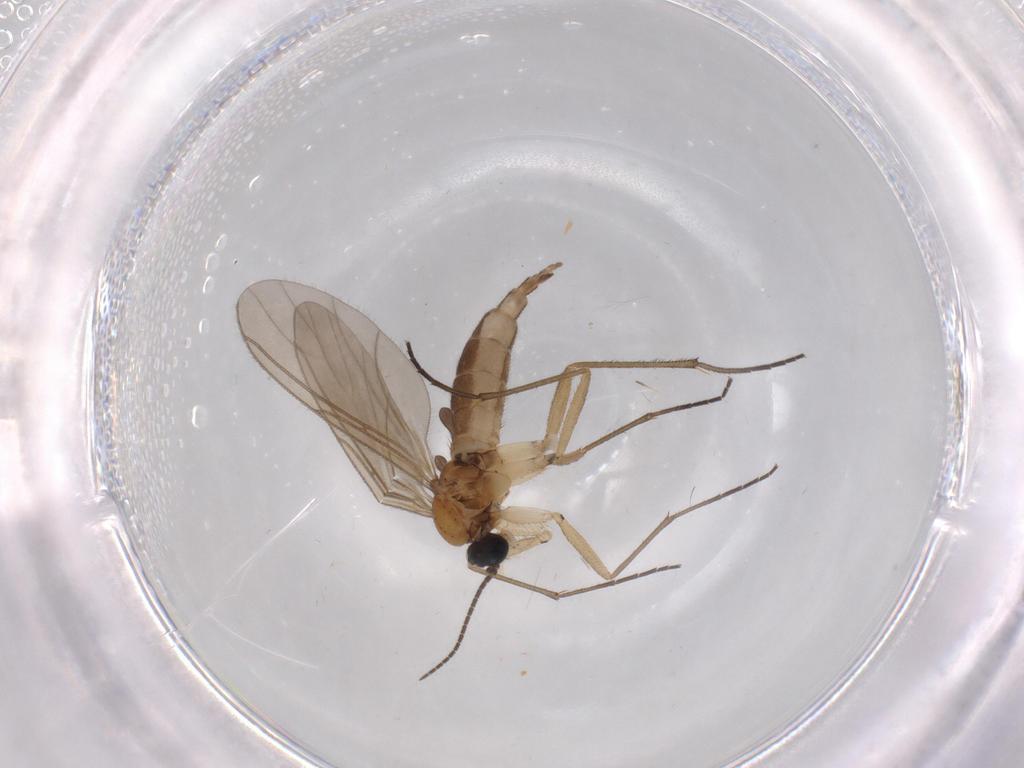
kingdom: Animalia
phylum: Arthropoda
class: Insecta
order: Diptera
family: Limoniidae
